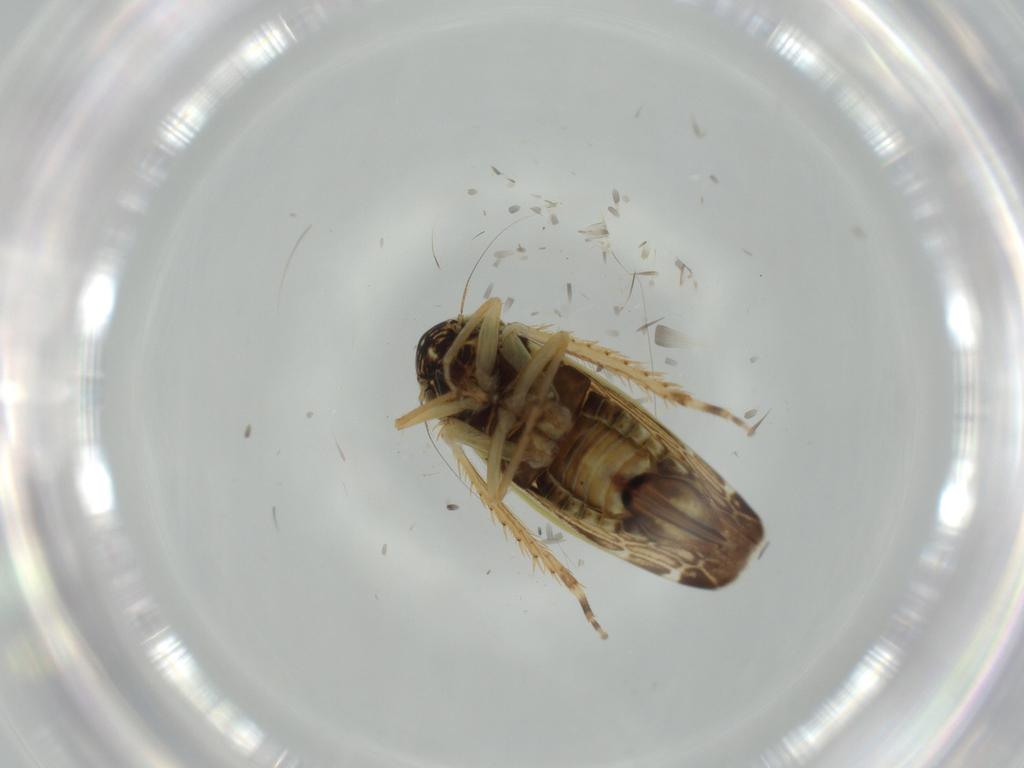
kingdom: Animalia
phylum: Arthropoda
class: Insecta
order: Hemiptera
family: Cicadellidae
